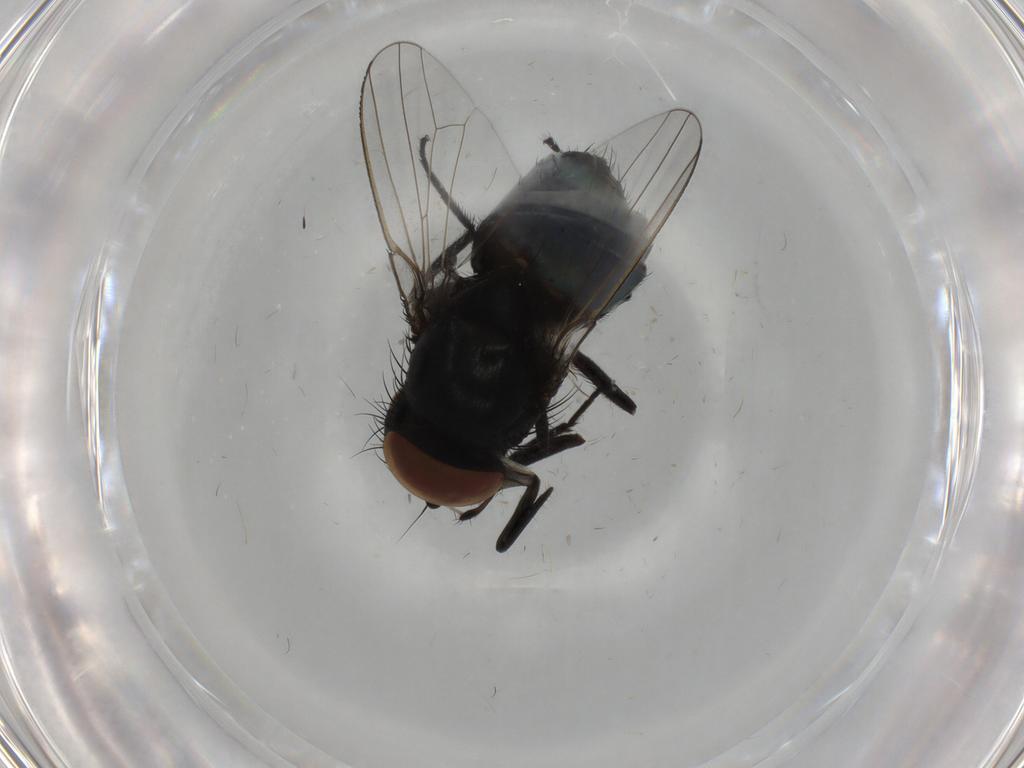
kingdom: Animalia
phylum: Arthropoda
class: Insecta
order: Diptera
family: Milichiidae
